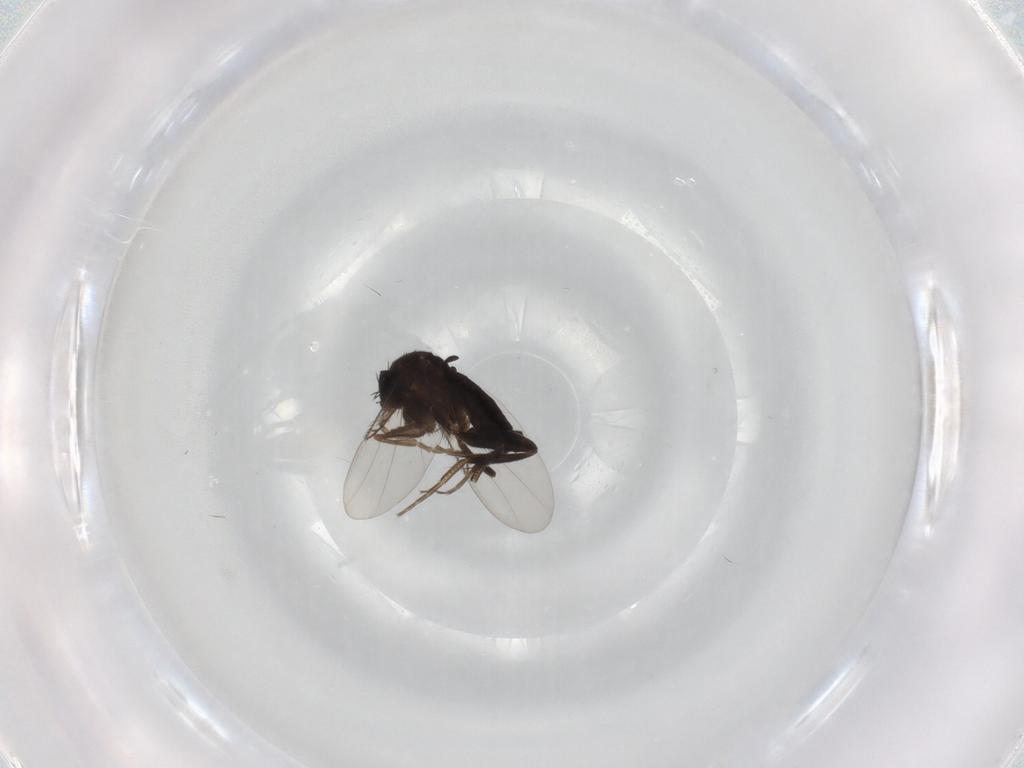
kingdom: Animalia
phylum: Arthropoda
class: Insecta
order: Diptera
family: Phoridae
